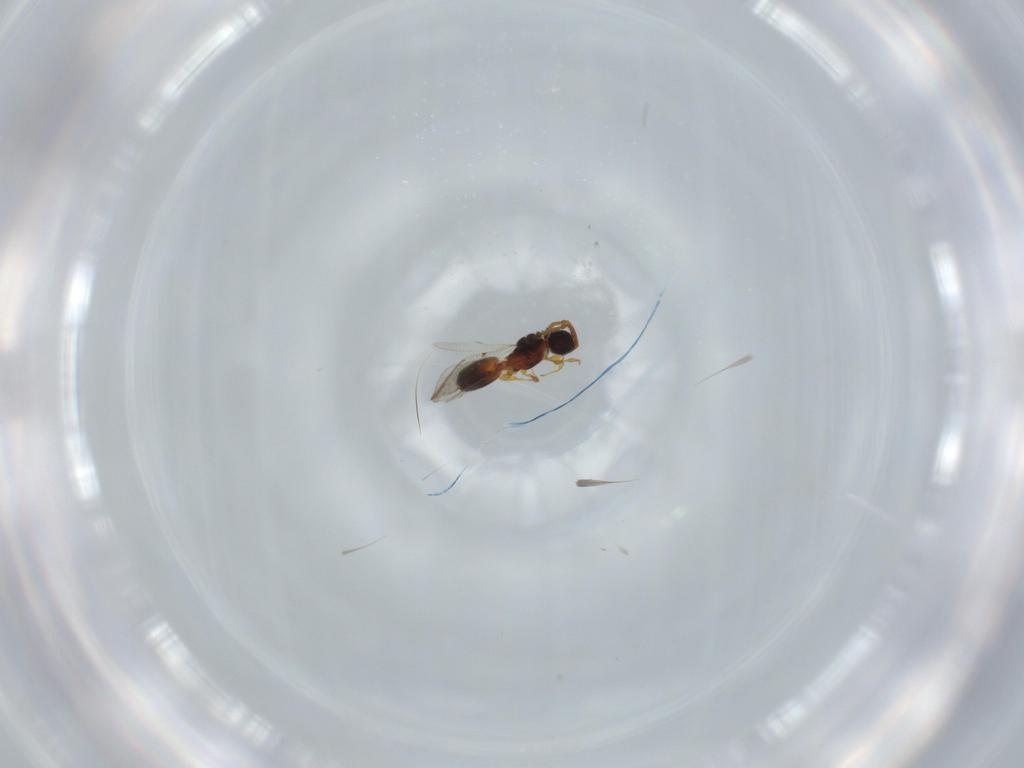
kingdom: Animalia
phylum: Arthropoda
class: Insecta
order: Hymenoptera
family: Diapriidae
